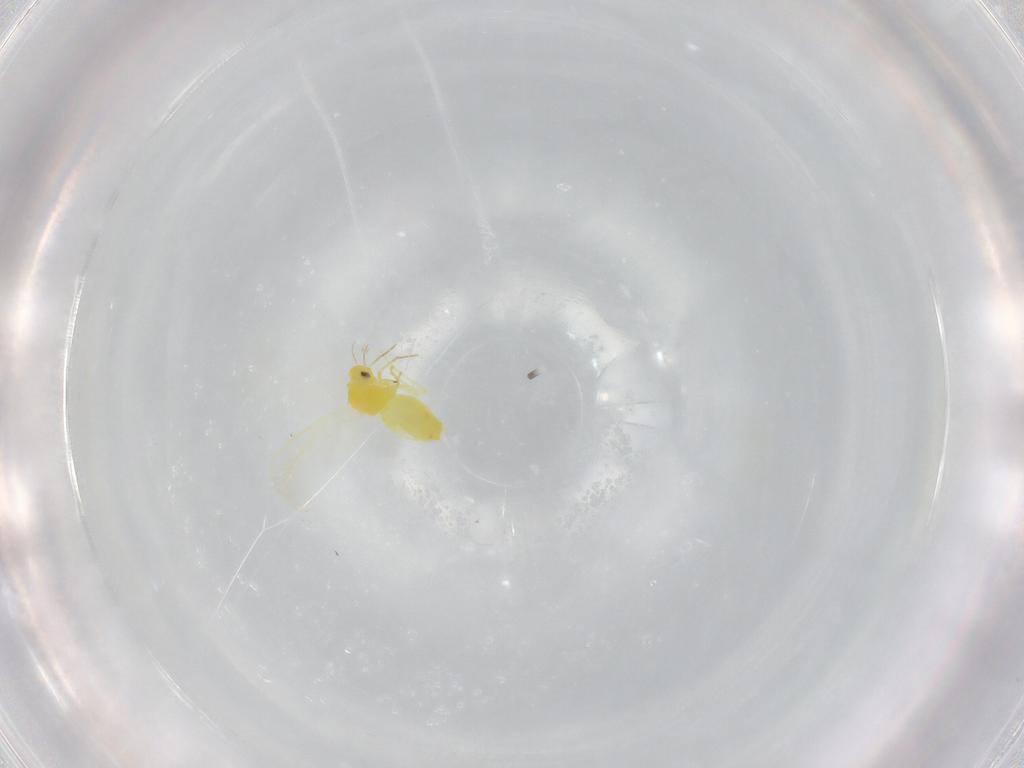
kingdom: Animalia
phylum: Arthropoda
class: Insecta
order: Hemiptera
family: Aleyrodidae
